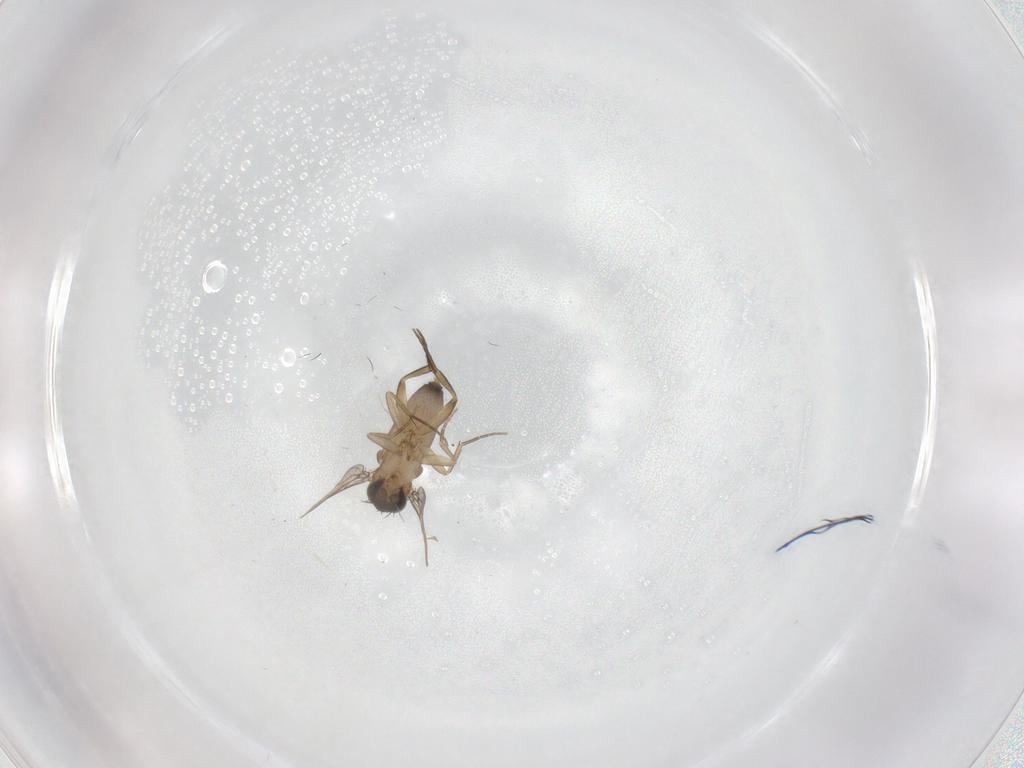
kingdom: Animalia
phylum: Arthropoda
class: Insecta
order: Diptera
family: Phoridae
